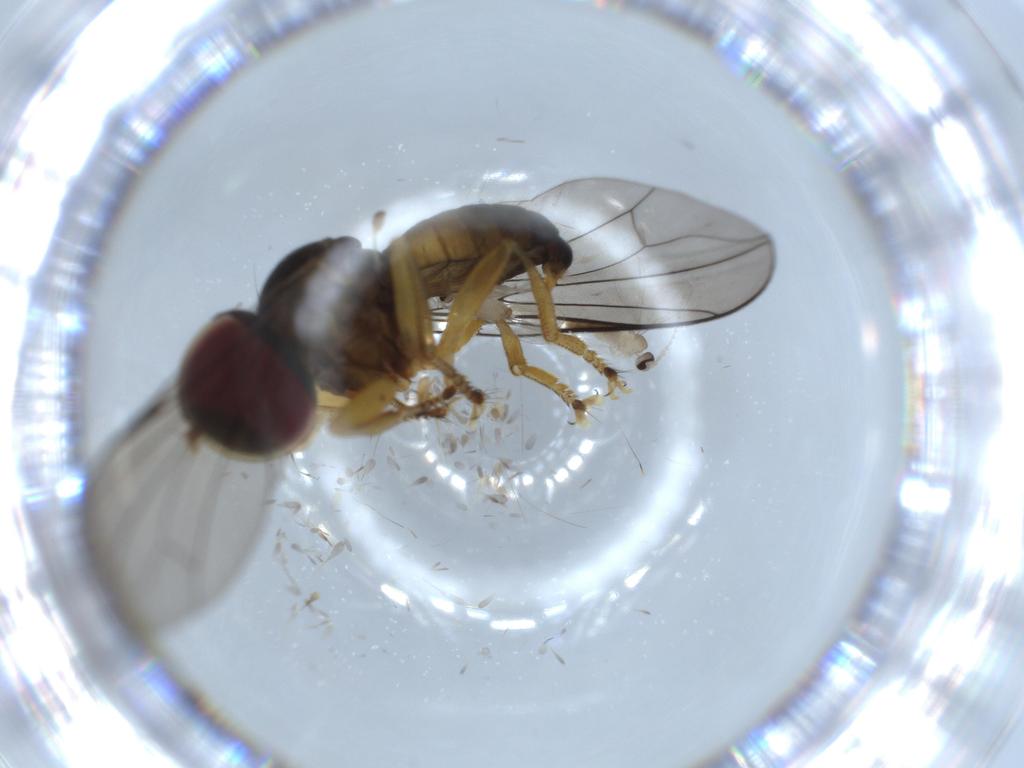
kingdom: Animalia
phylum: Arthropoda
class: Insecta
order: Diptera
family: Pipunculidae
